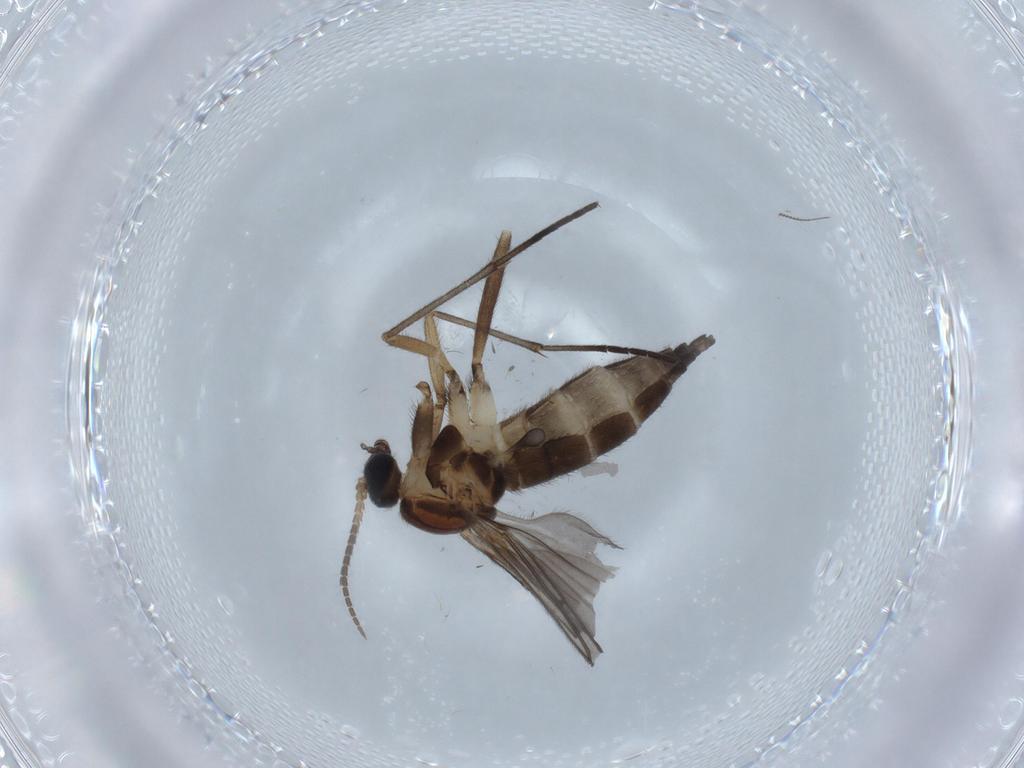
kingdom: Animalia
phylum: Arthropoda
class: Insecta
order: Diptera
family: Sciaridae
